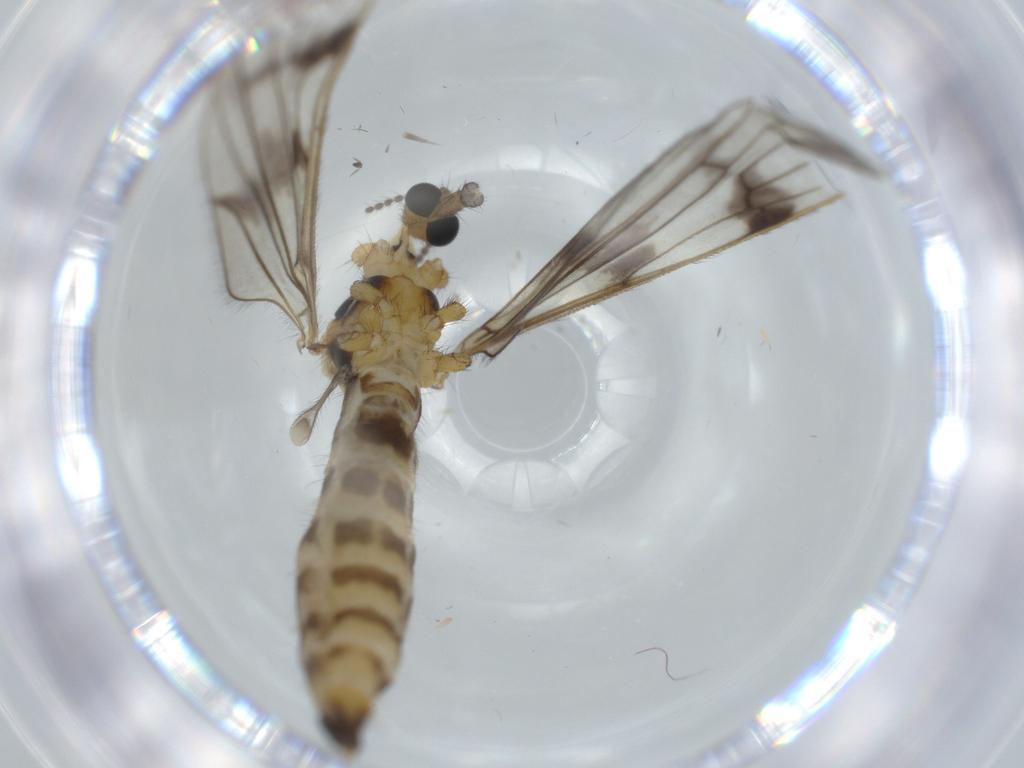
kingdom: Animalia
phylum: Arthropoda
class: Insecta
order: Diptera
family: Limoniidae
